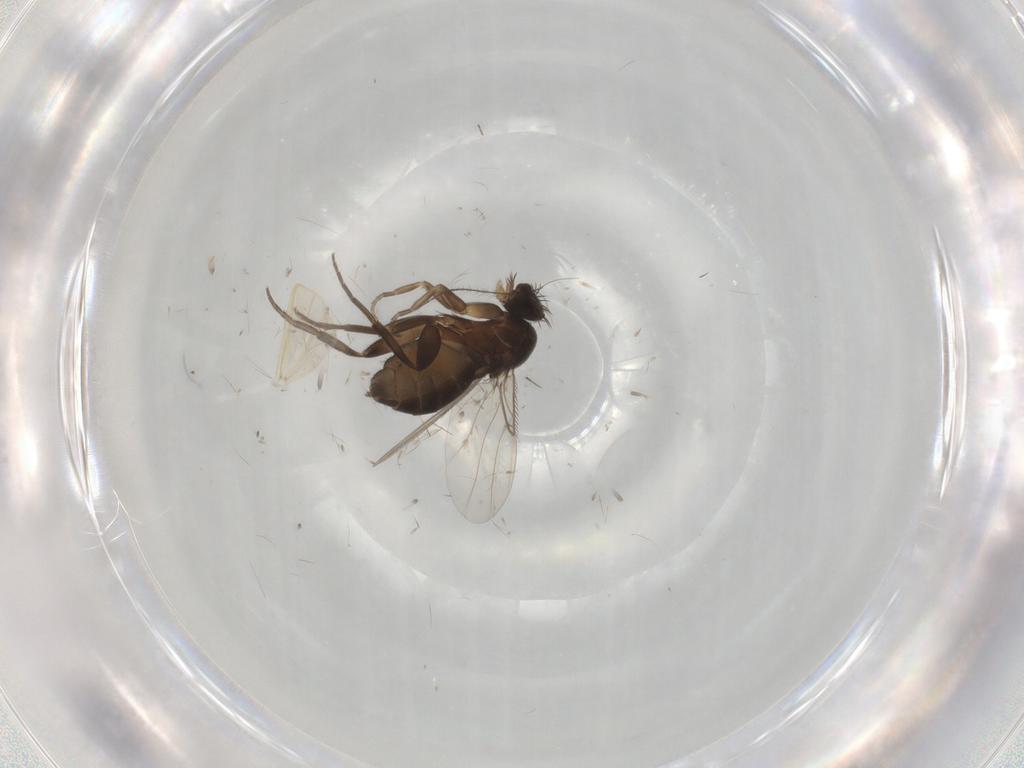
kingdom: Animalia
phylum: Arthropoda
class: Insecta
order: Diptera
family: Phoridae
